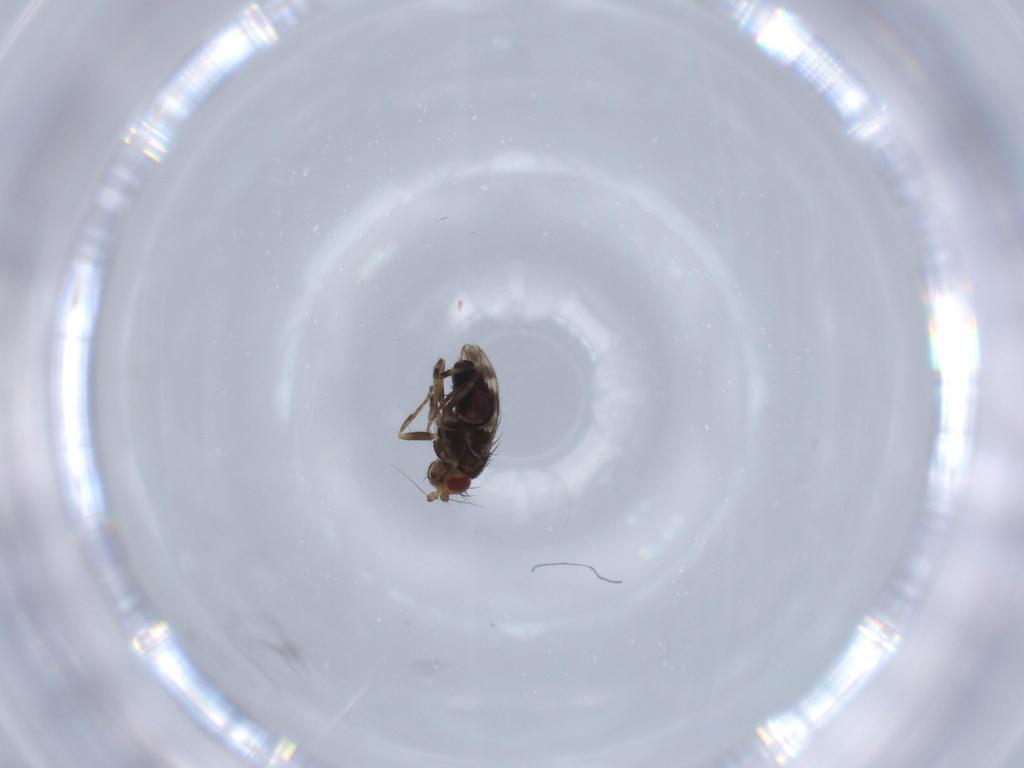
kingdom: Animalia
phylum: Arthropoda
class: Insecta
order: Diptera
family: Sphaeroceridae
